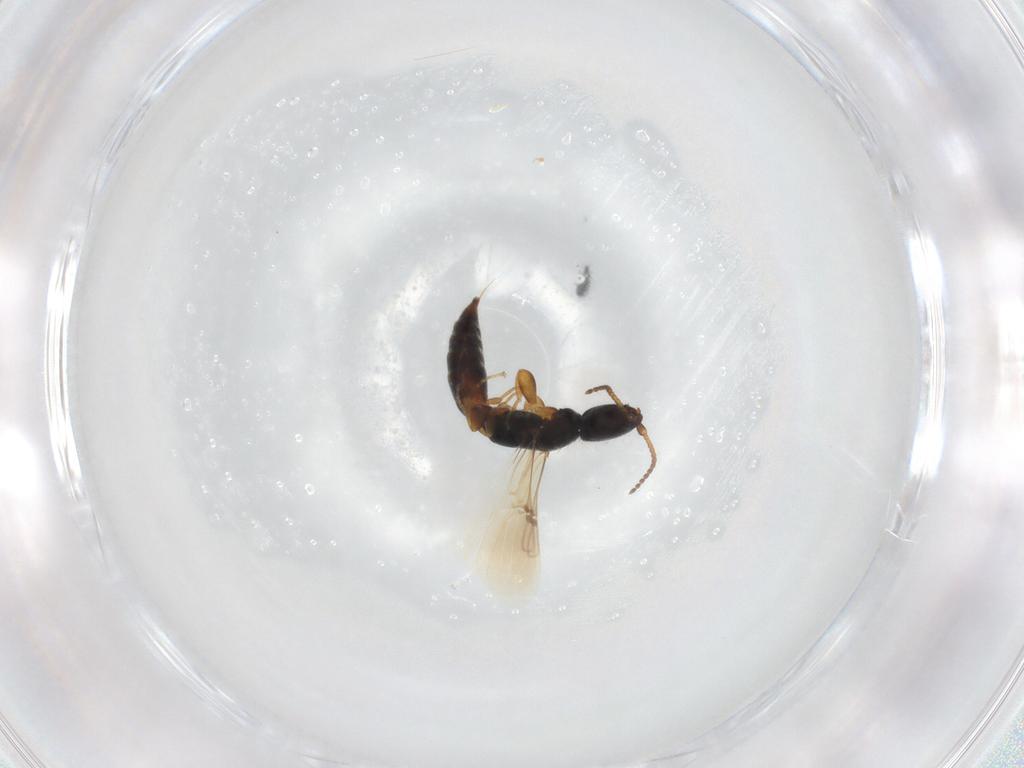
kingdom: Animalia
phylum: Arthropoda
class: Insecta
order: Hymenoptera
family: Bethylidae
